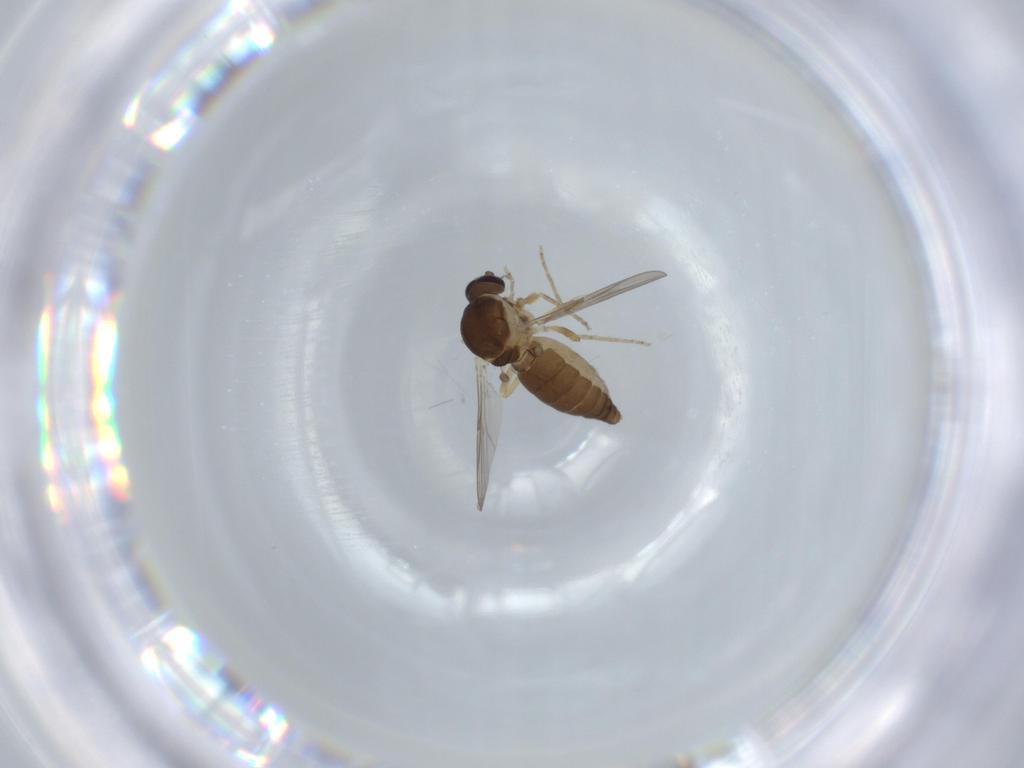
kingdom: Animalia
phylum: Arthropoda
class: Insecta
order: Diptera
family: Ceratopogonidae
